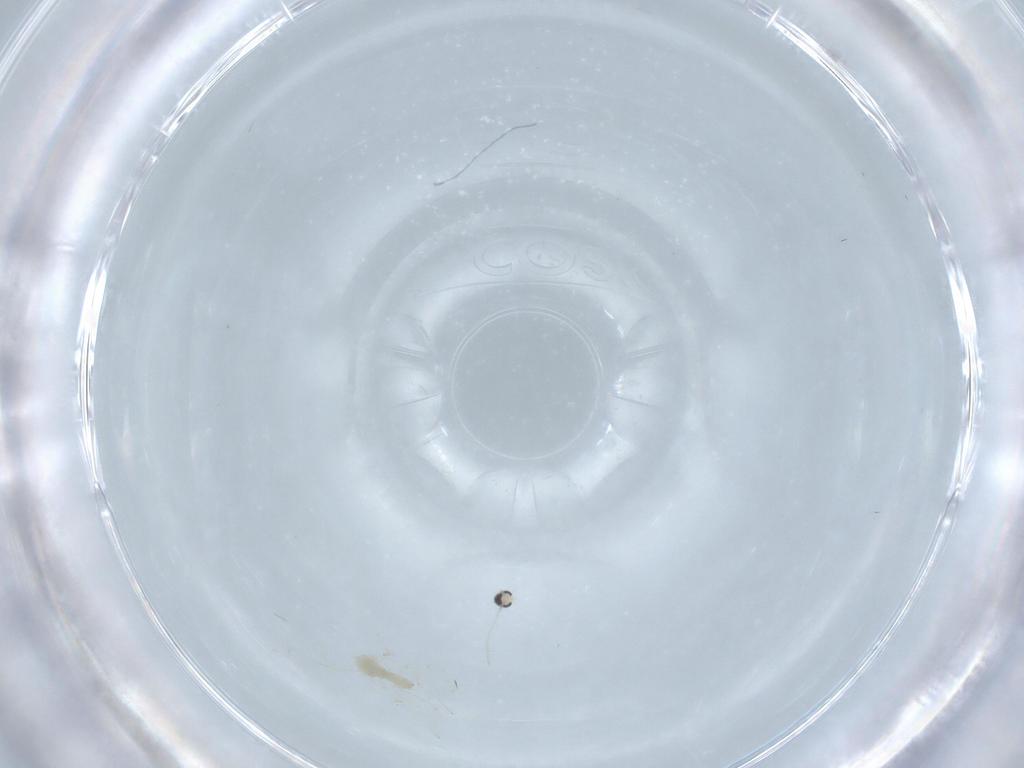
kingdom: Animalia
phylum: Arthropoda
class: Insecta
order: Diptera
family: Cecidomyiidae
